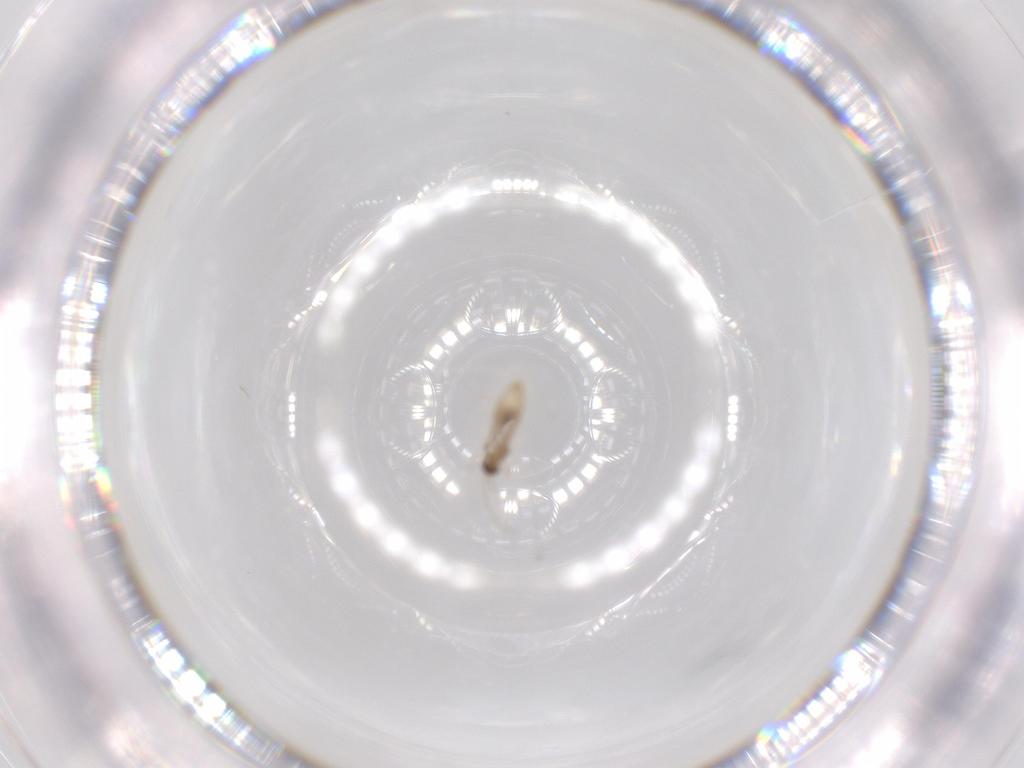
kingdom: Animalia
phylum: Arthropoda
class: Insecta
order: Diptera
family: Cecidomyiidae
